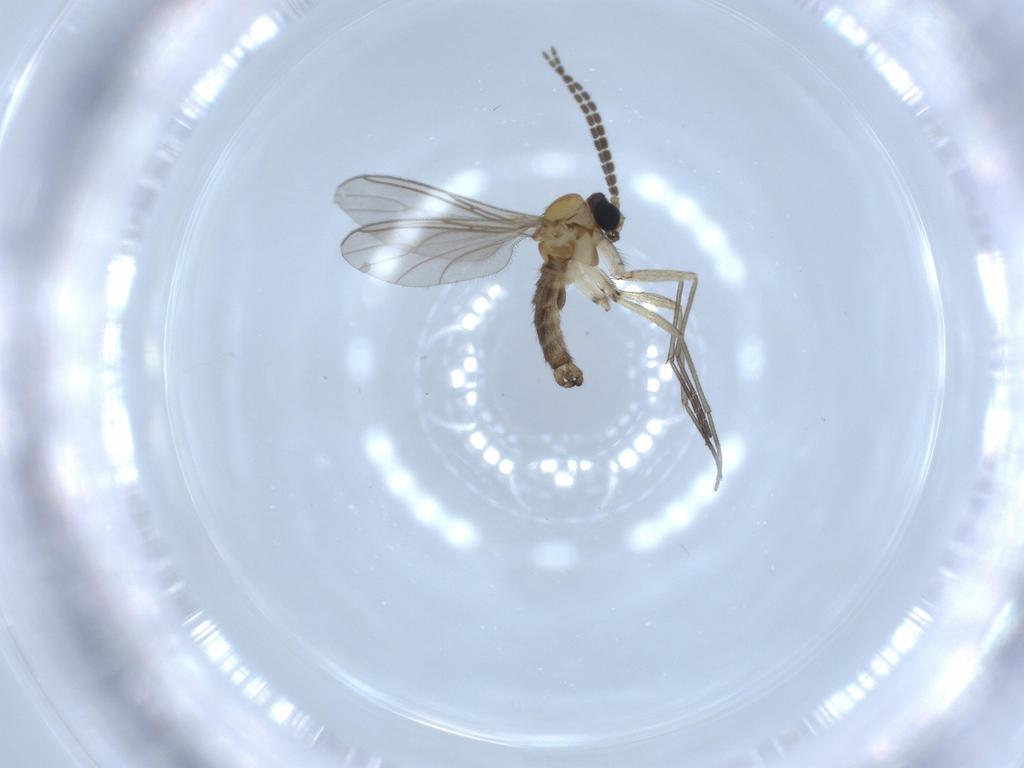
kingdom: Animalia
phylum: Arthropoda
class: Insecta
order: Diptera
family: Sciaridae
